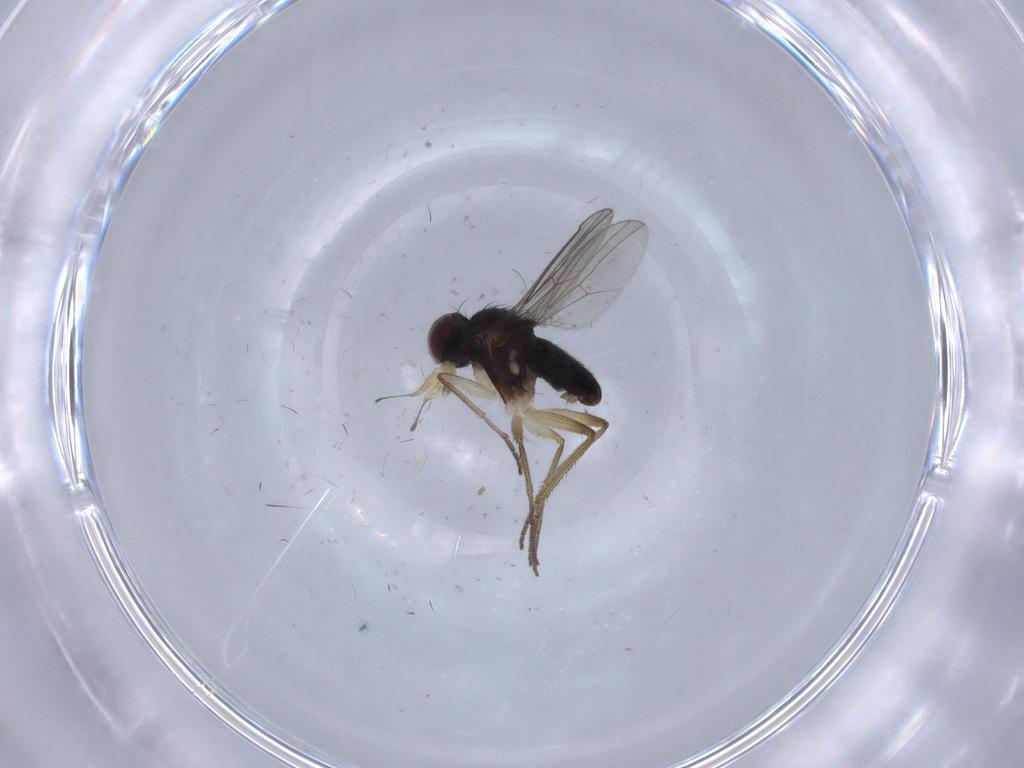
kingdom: Animalia
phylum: Arthropoda
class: Insecta
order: Diptera
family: Dolichopodidae
